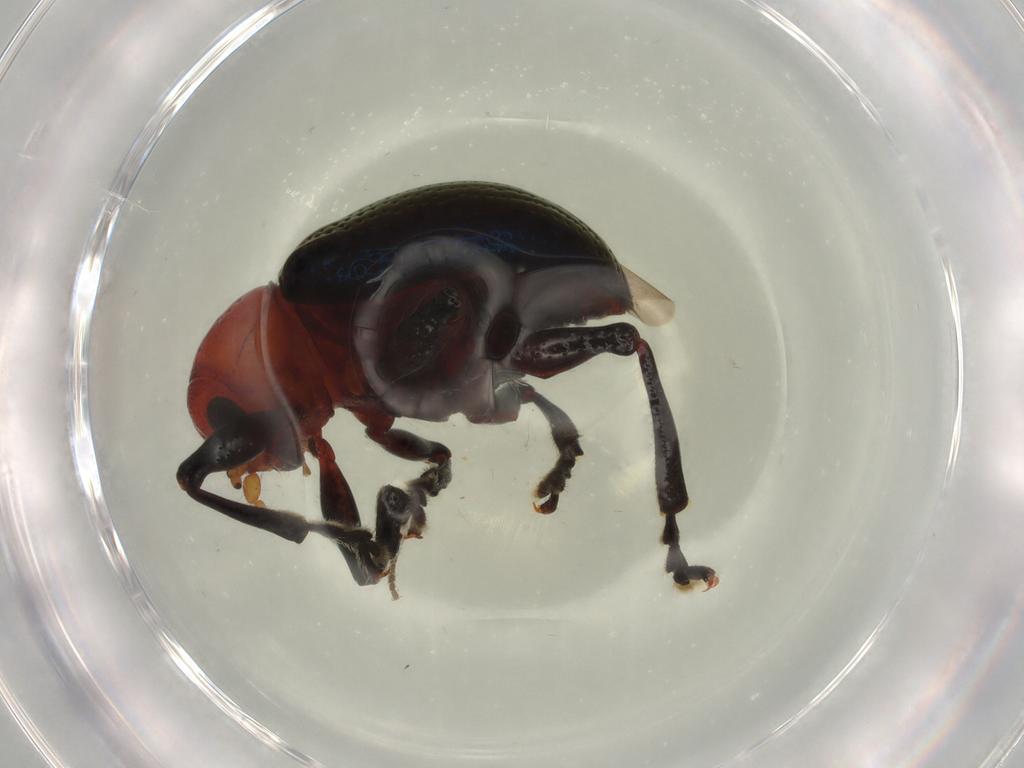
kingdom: Animalia
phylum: Arthropoda
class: Insecta
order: Coleoptera
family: Chrysomelidae
